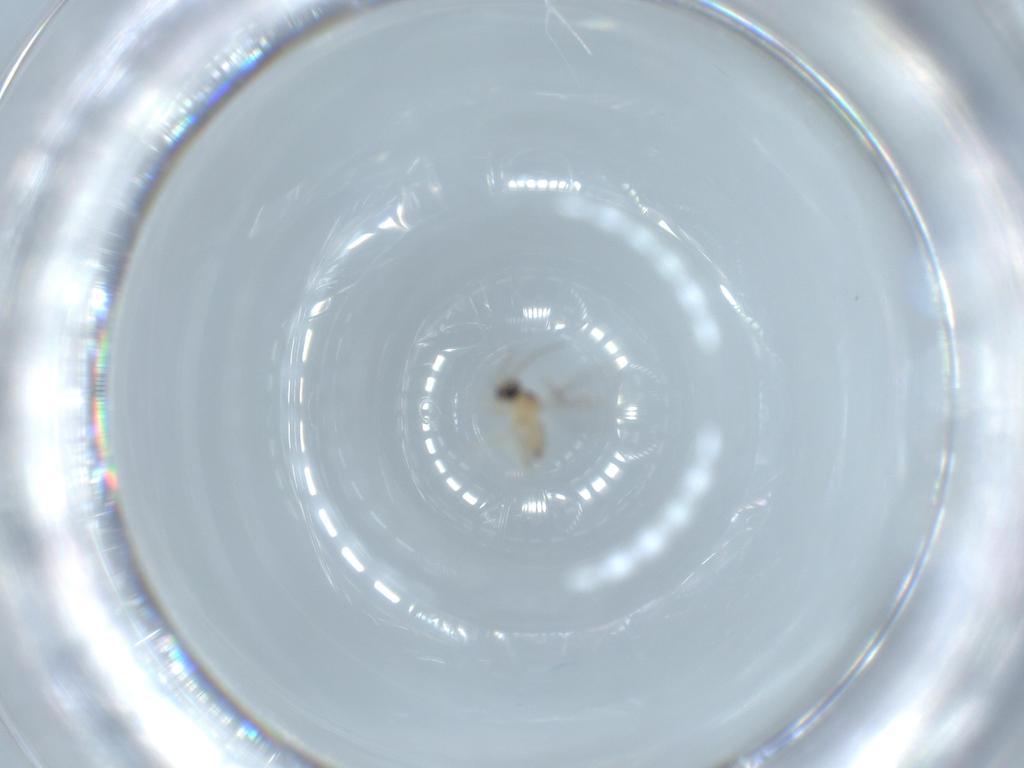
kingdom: Animalia
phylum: Arthropoda
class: Insecta
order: Diptera
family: Cecidomyiidae
